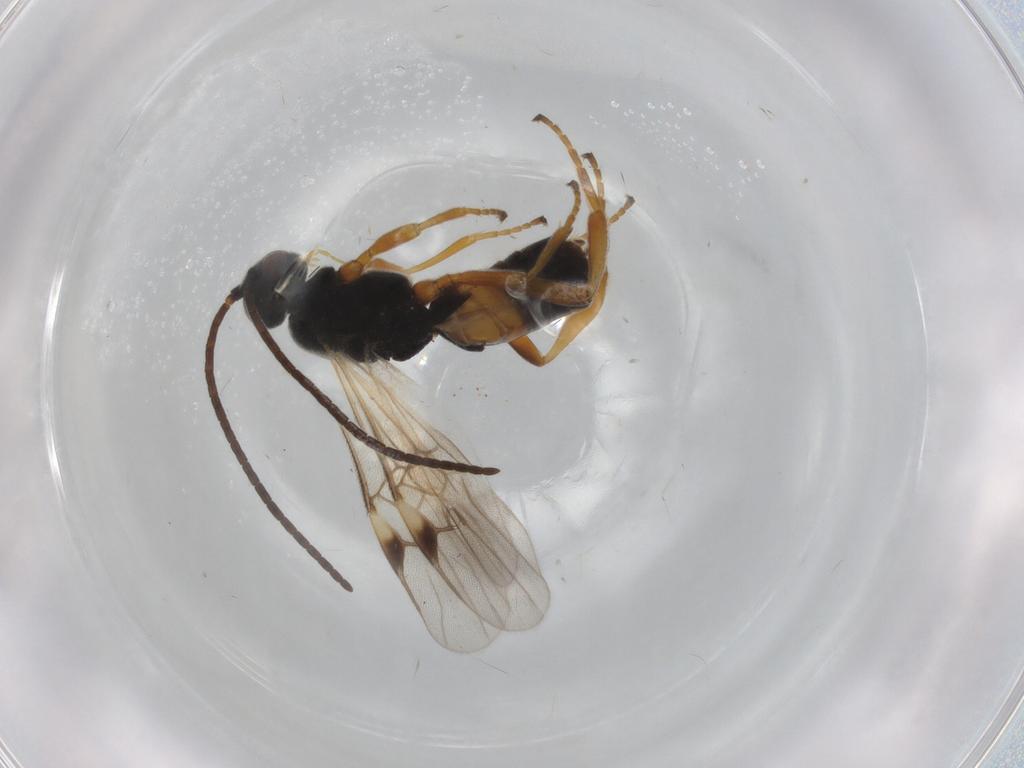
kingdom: Animalia
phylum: Arthropoda
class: Insecta
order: Hymenoptera
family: Braconidae
